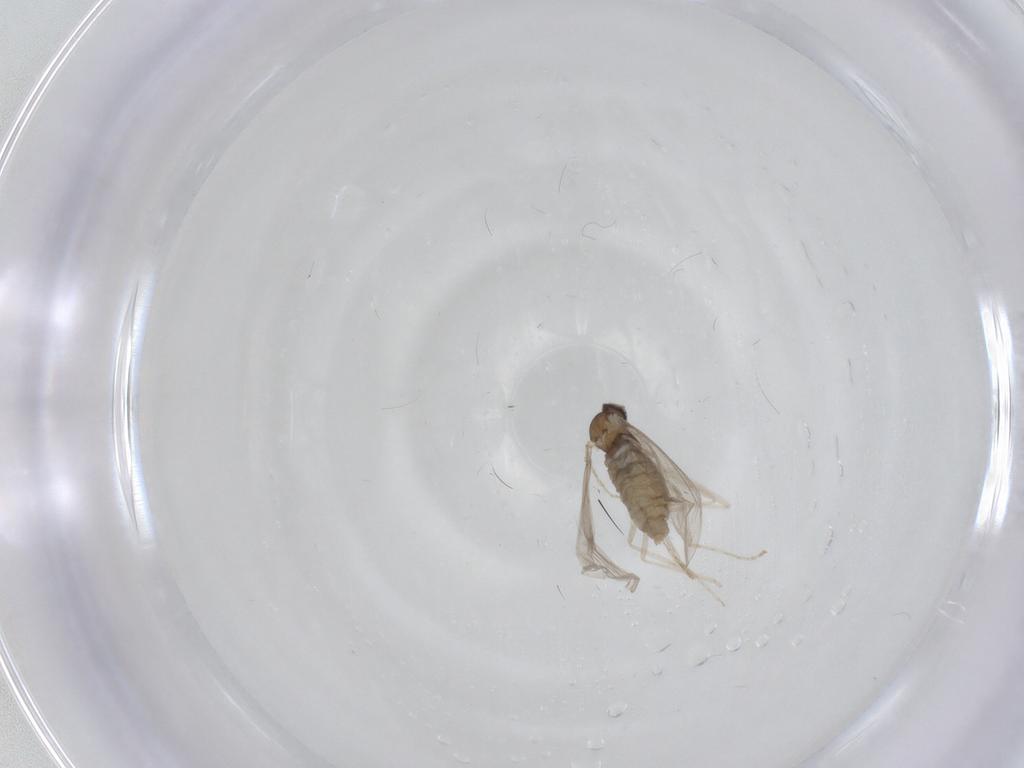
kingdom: Animalia
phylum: Arthropoda
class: Insecta
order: Diptera
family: Cecidomyiidae
